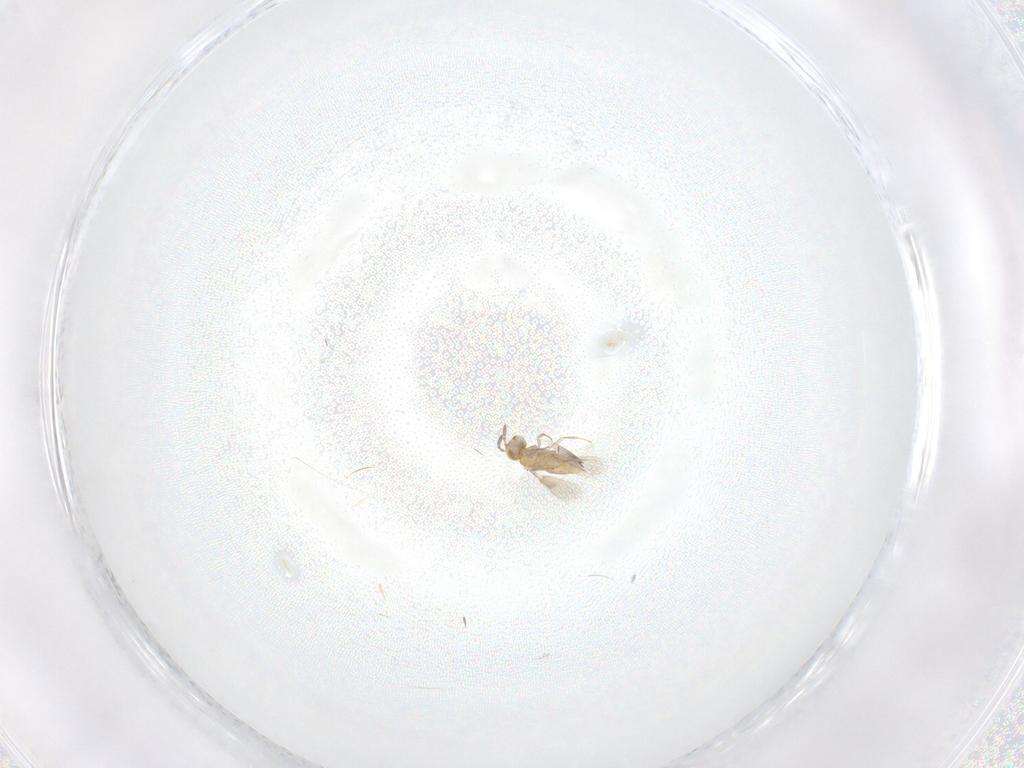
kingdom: Animalia
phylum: Arthropoda
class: Insecta
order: Hymenoptera
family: Aphelinidae
